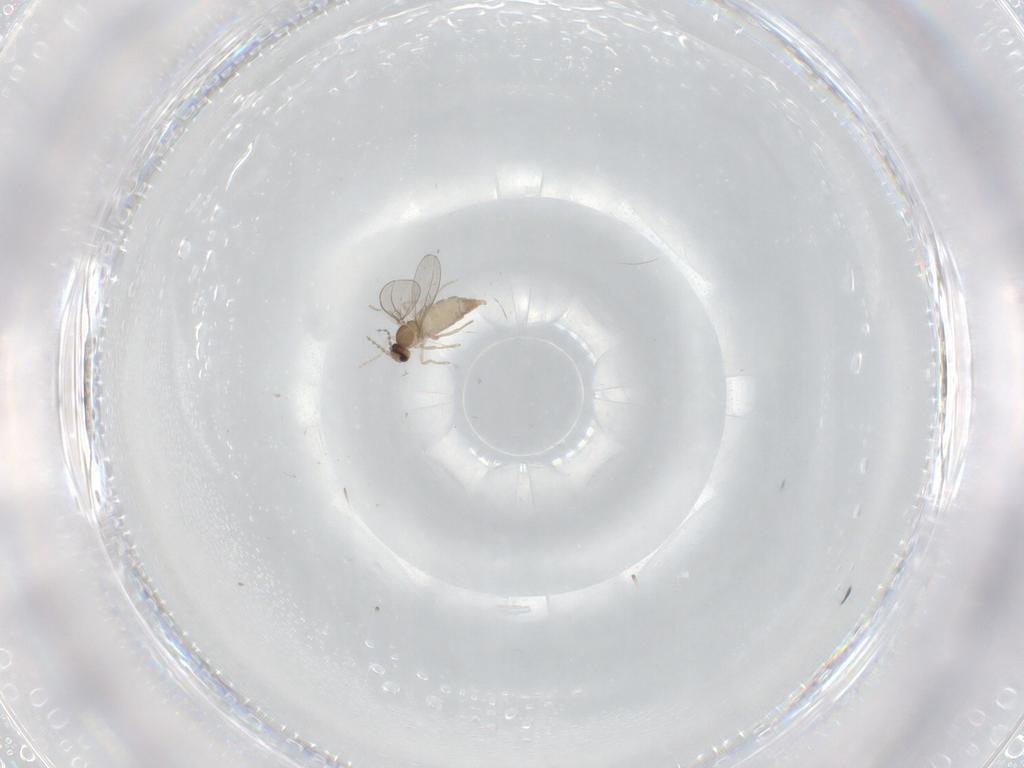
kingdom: Animalia
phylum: Arthropoda
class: Insecta
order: Diptera
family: Cecidomyiidae
